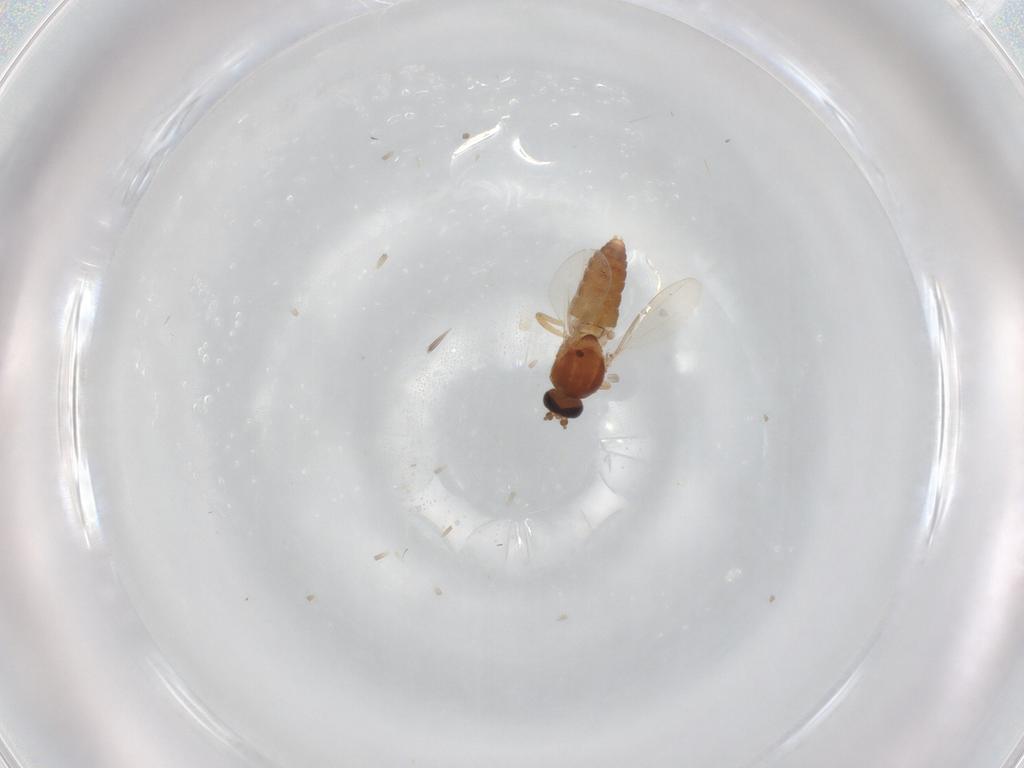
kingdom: Animalia
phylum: Arthropoda
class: Insecta
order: Diptera
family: Ceratopogonidae
